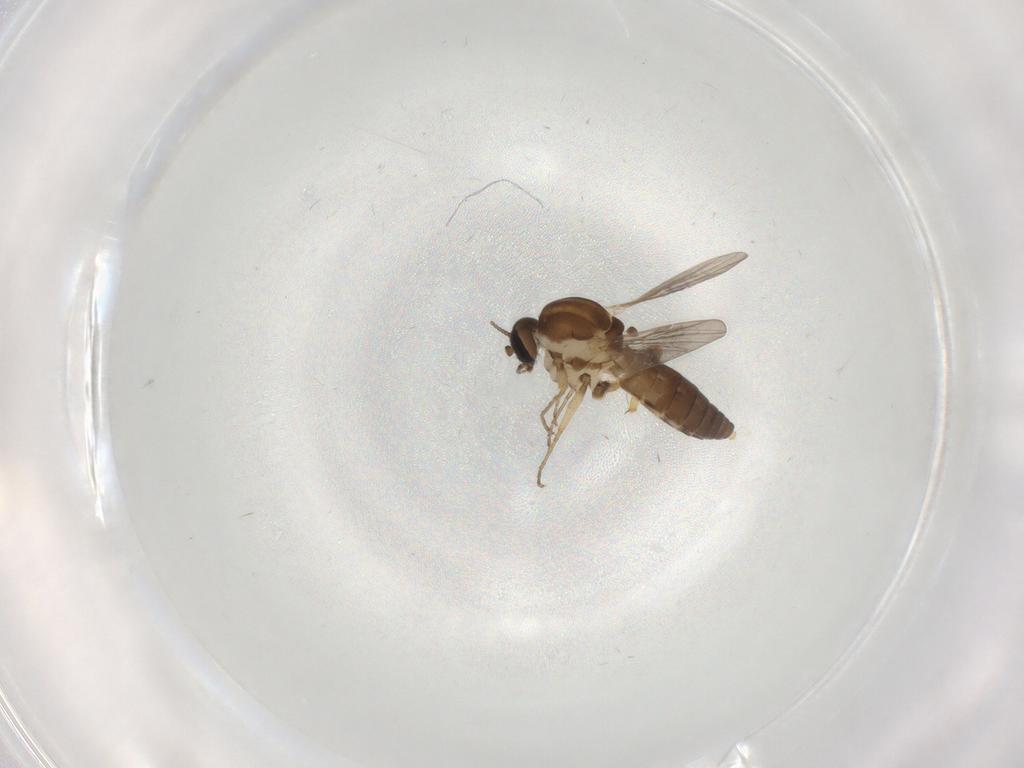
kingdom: Animalia
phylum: Arthropoda
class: Insecta
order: Diptera
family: Ceratopogonidae
